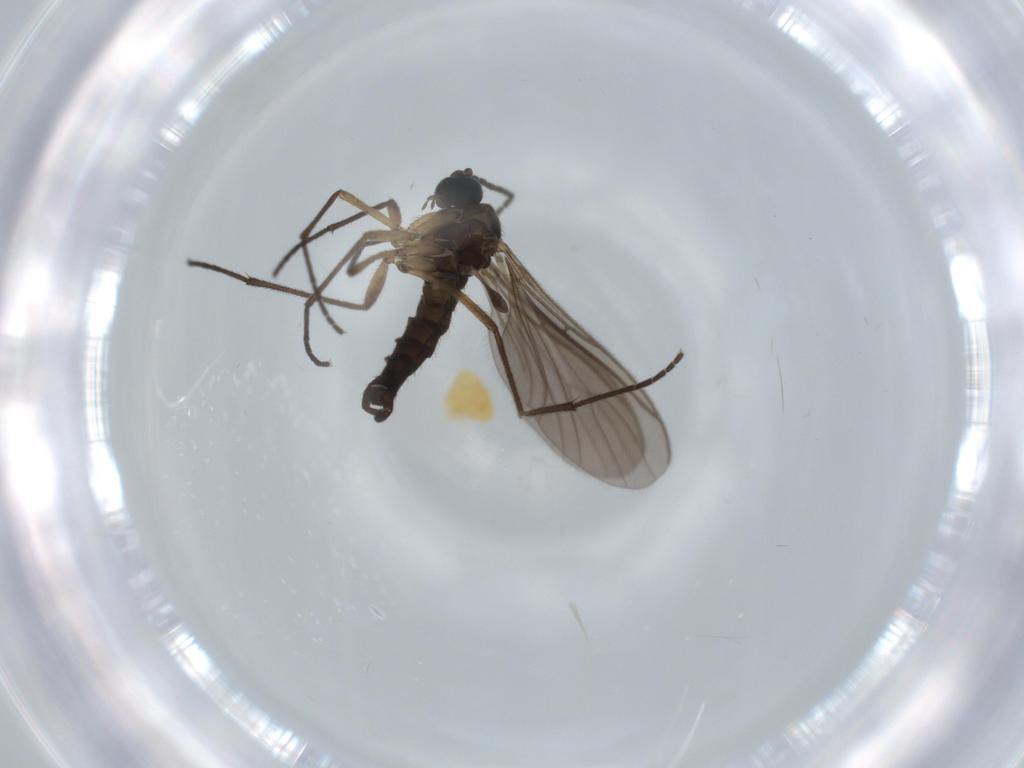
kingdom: Animalia
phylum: Arthropoda
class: Insecta
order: Diptera
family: Sciaridae
